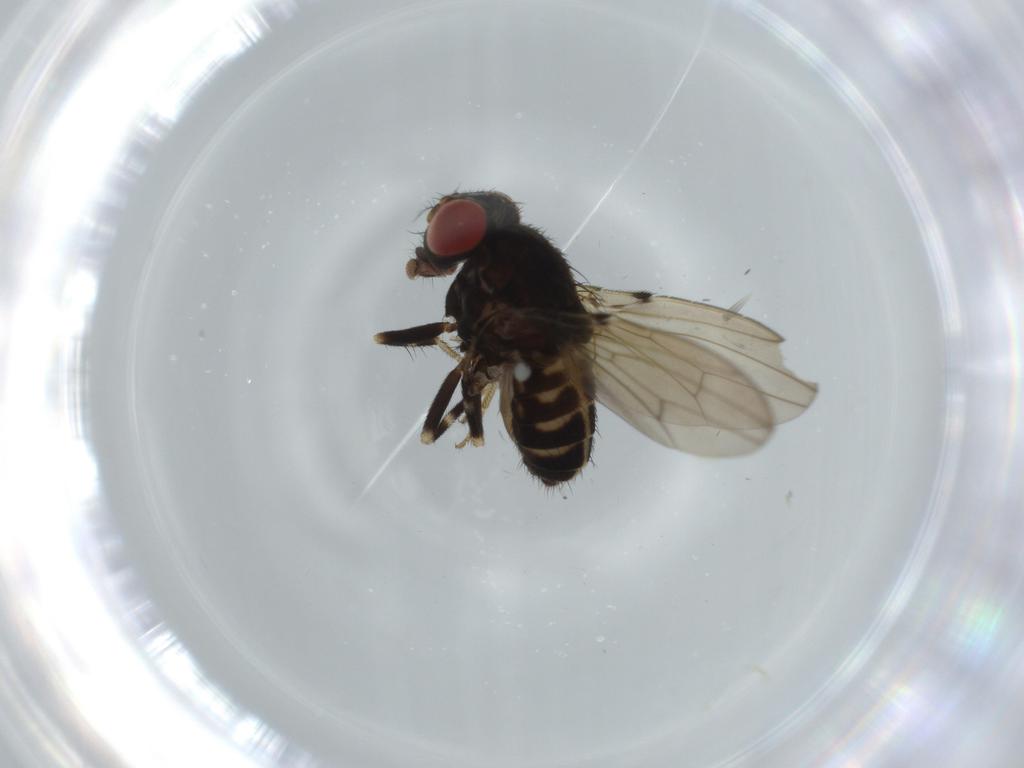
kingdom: Animalia
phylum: Arthropoda
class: Insecta
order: Diptera
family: Drosophilidae
